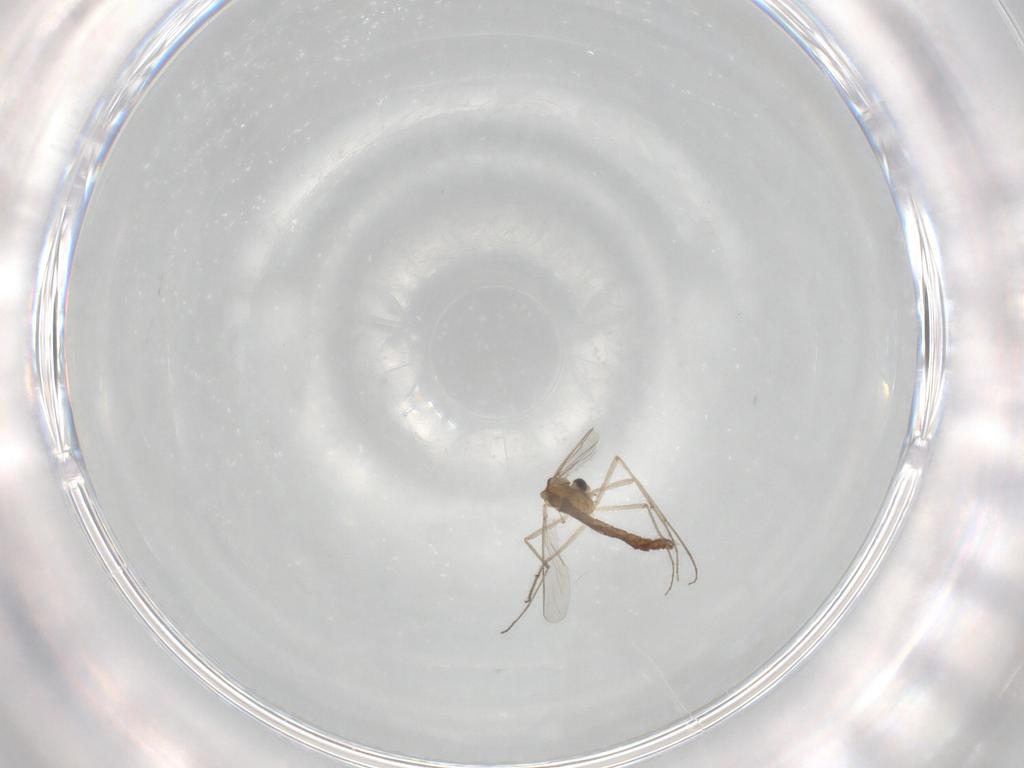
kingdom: Animalia
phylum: Arthropoda
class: Insecta
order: Diptera
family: Chironomidae
